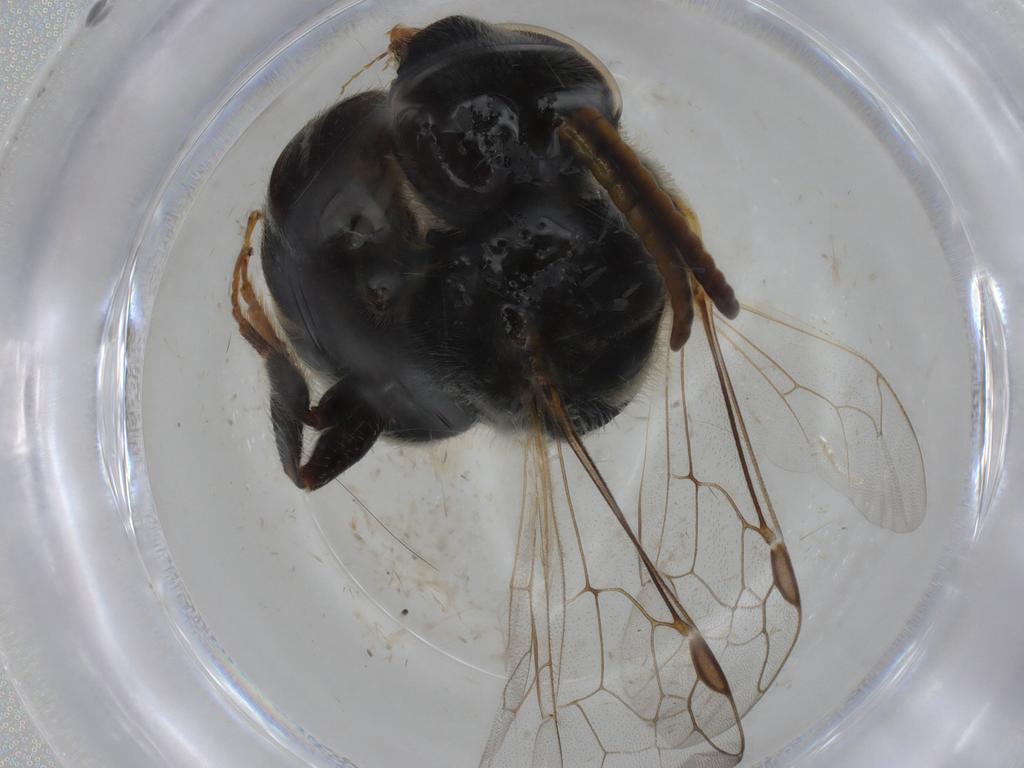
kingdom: Animalia
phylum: Arthropoda
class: Insecta
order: Hymenoptera
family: Philanthidae
